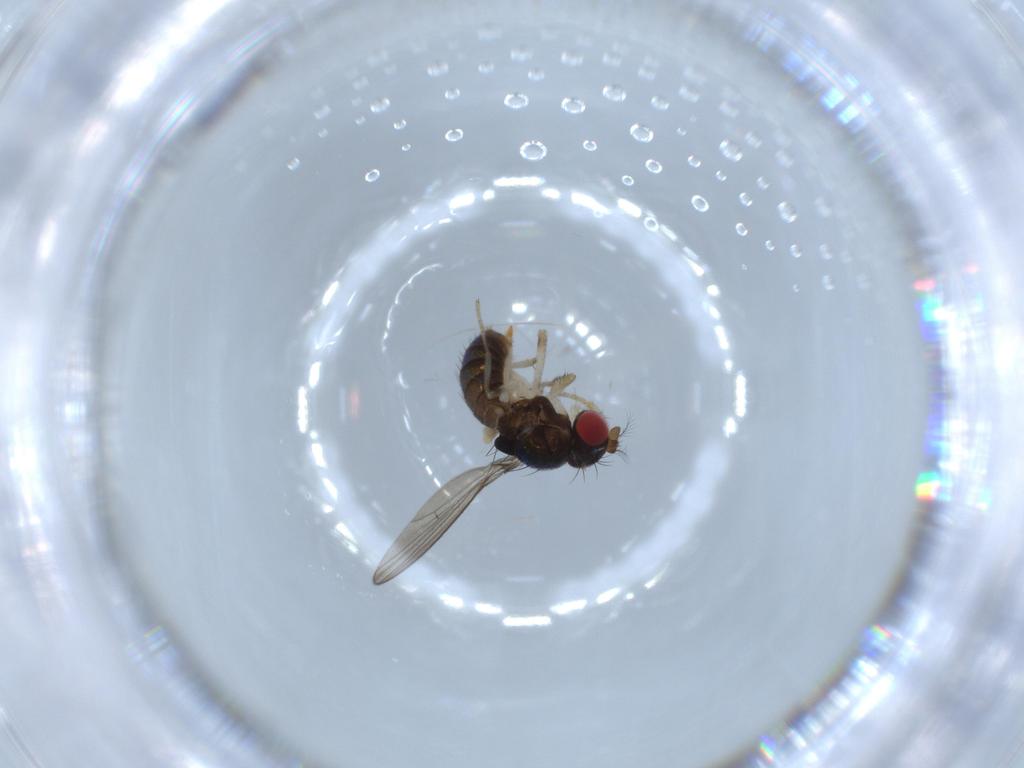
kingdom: Animalia
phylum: Arthropoda
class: Insecta
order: Diptera
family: Drosophilidae
